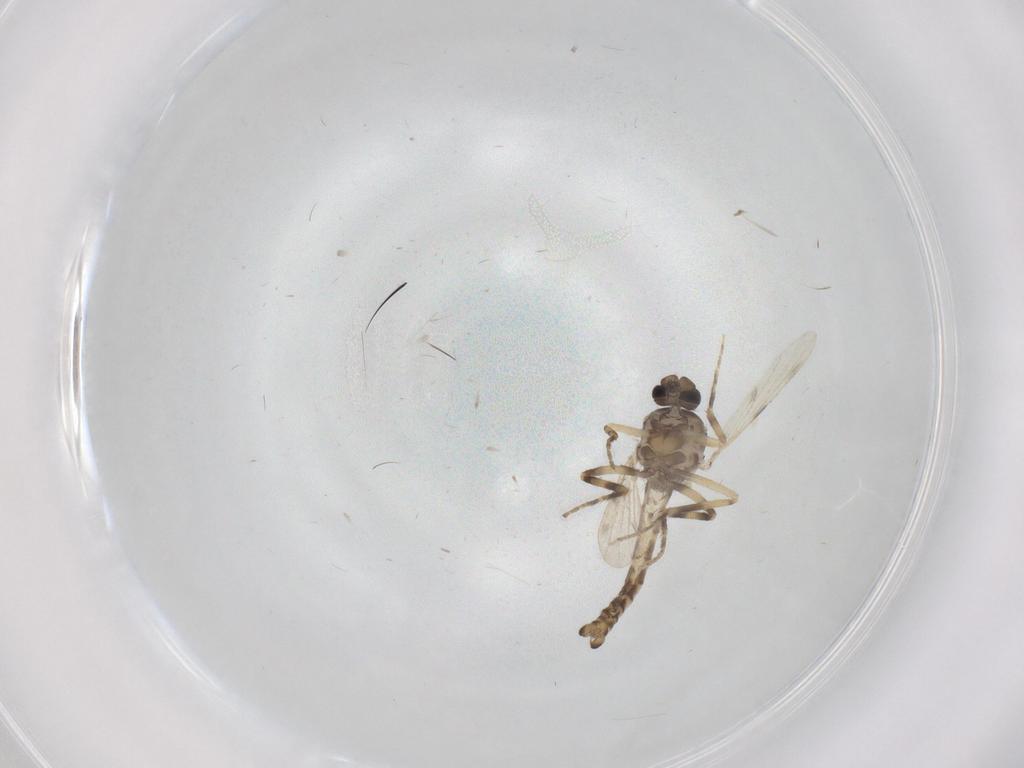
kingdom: Animalia
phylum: Arthropoda
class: Insecta
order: Diptera
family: Ceratopogonidae
